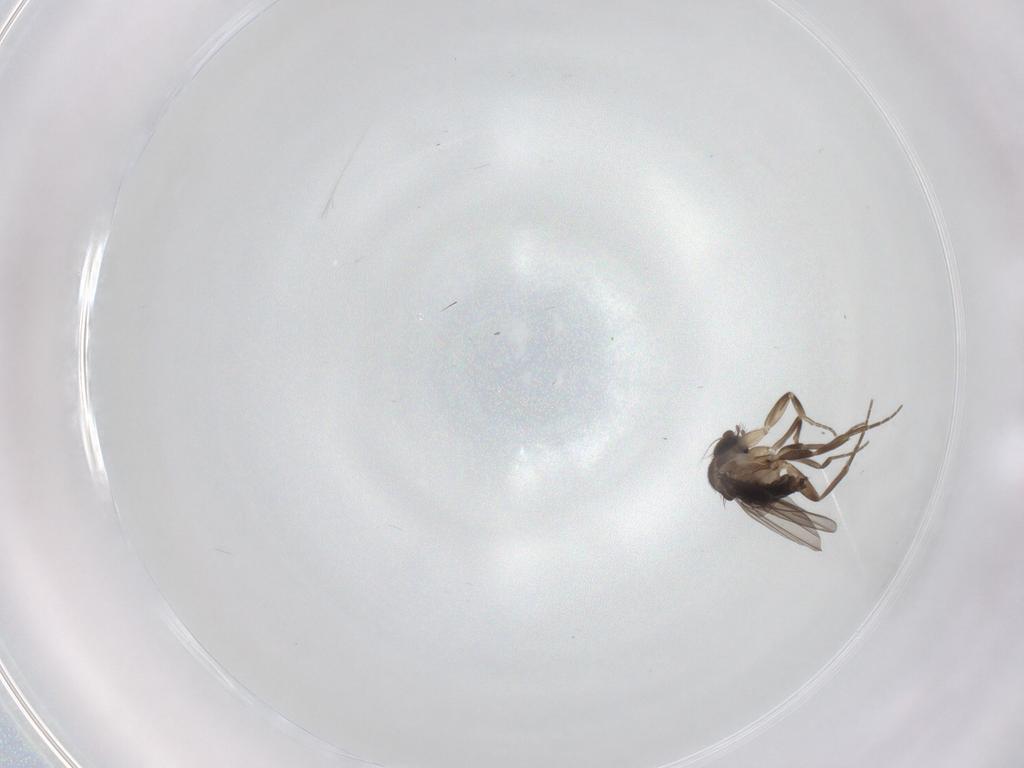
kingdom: Animalia
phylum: Arthropoda
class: Insecta
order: Diptera
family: Phoridae
